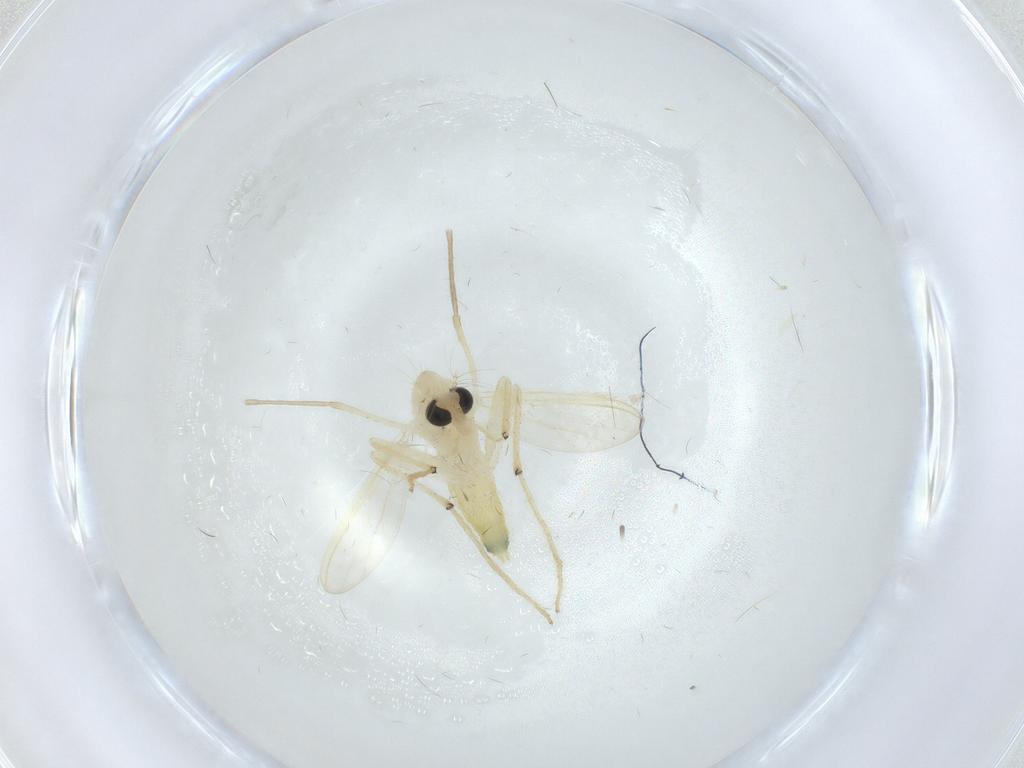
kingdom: Animalia
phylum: Arthropoda
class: Insecta
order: Diptera
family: Chironomidae
